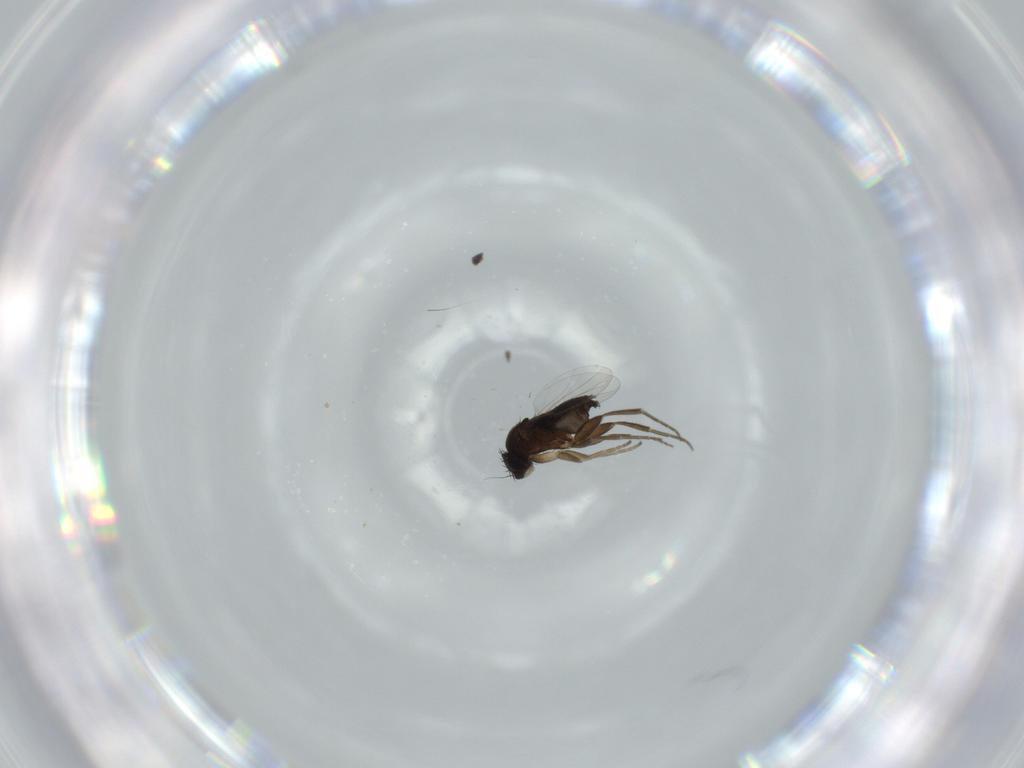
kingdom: Animalia
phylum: Arthropoda
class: Insecta
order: Diptera
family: Phoridae
